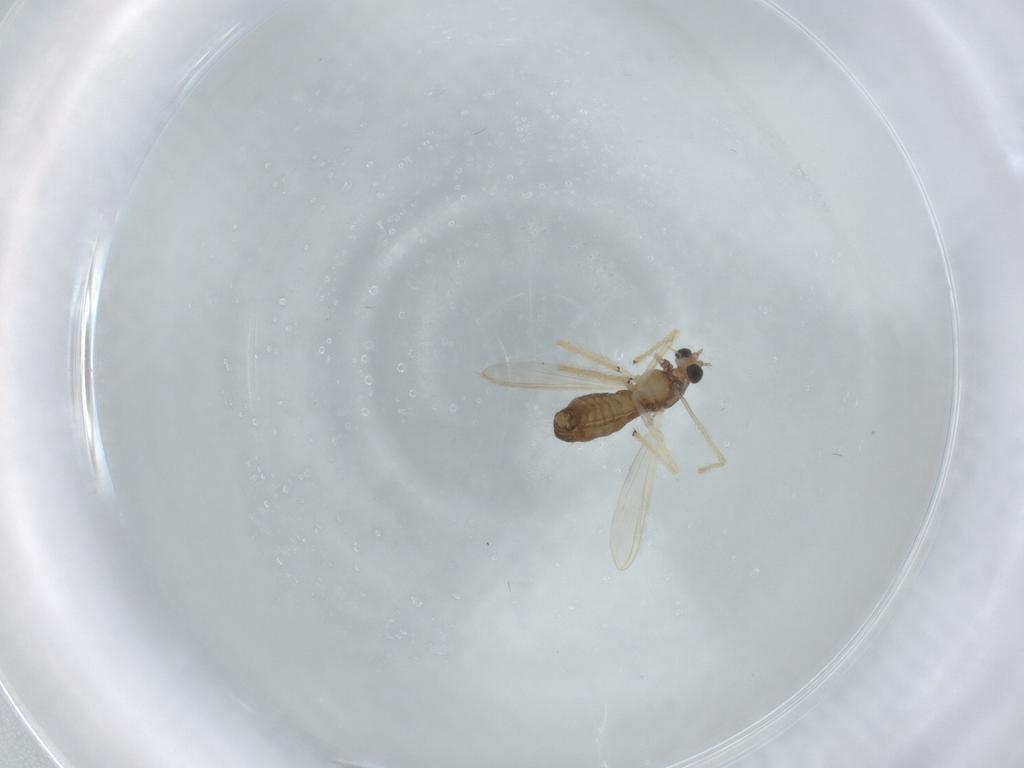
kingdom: Animalia
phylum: Arthropoda
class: Insecta
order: Diptera
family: Chironomidae
